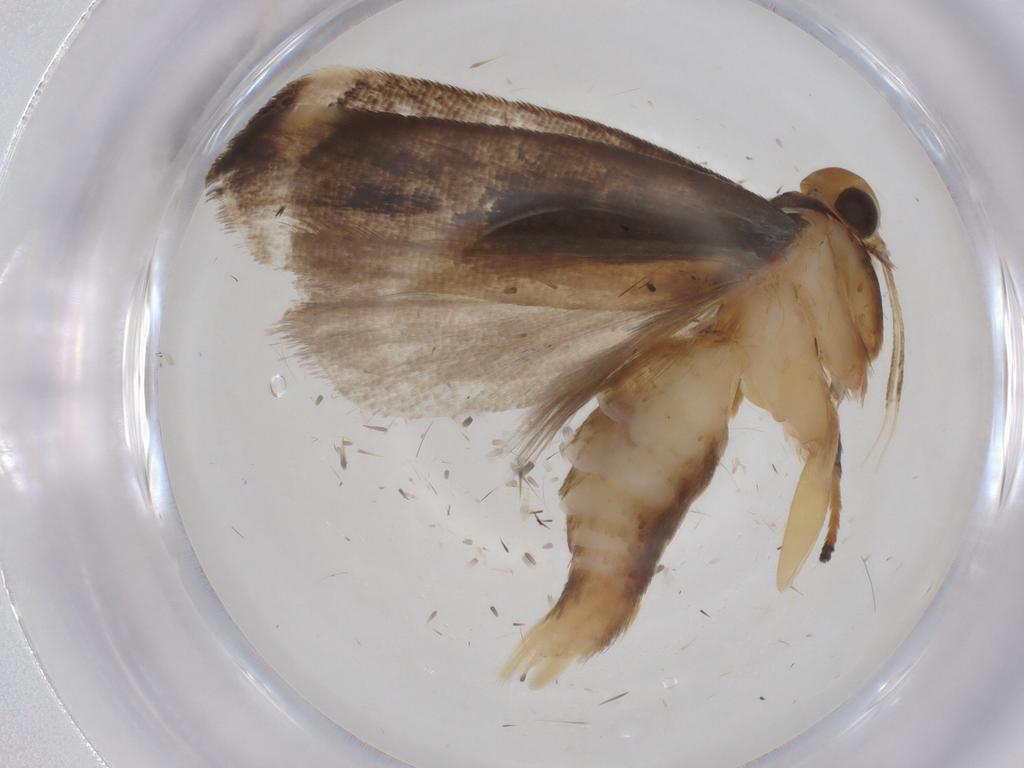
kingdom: Animalia
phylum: Arthropoda
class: Insecta
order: Lepidoptera
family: Gelechiidae
